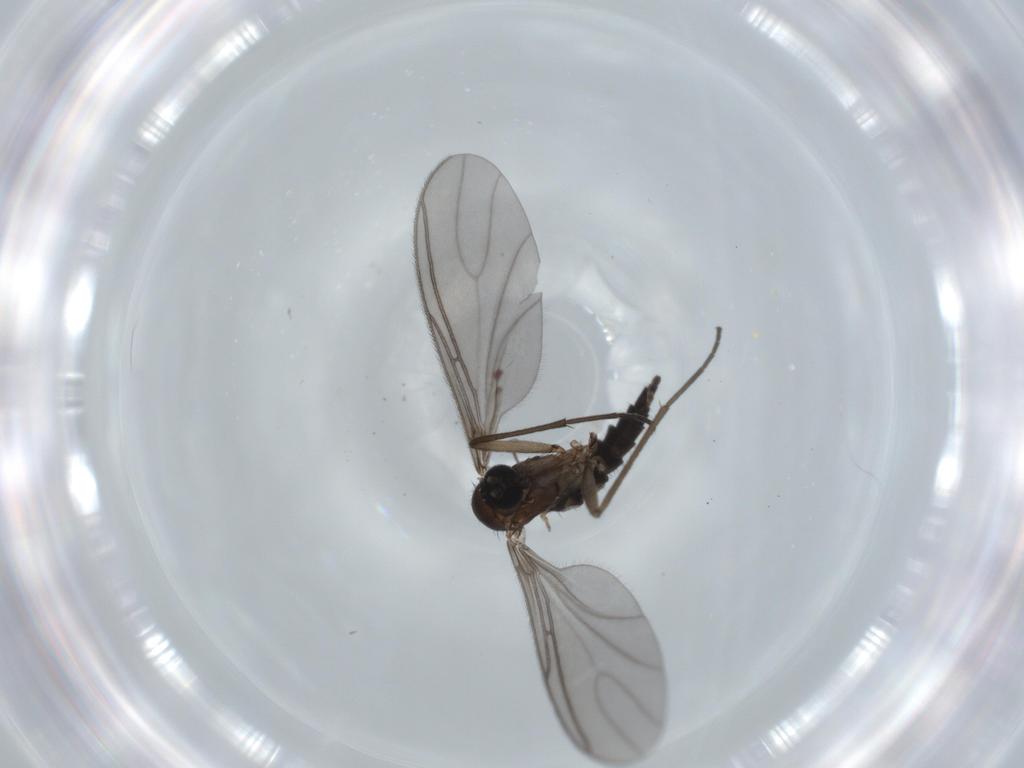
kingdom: Animalia
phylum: Arthropoda
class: Insecta
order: Diptera
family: Sciaridae
